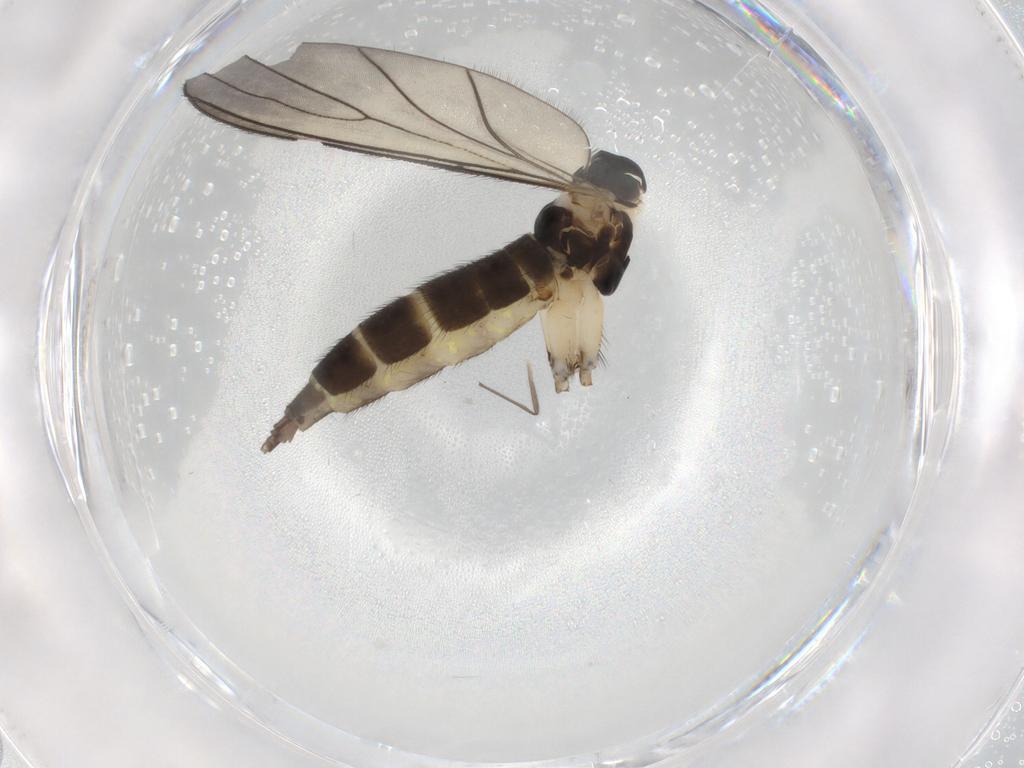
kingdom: Animalia
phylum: Arthropoda
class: Insecta
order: Diptera
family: Sciaridae
